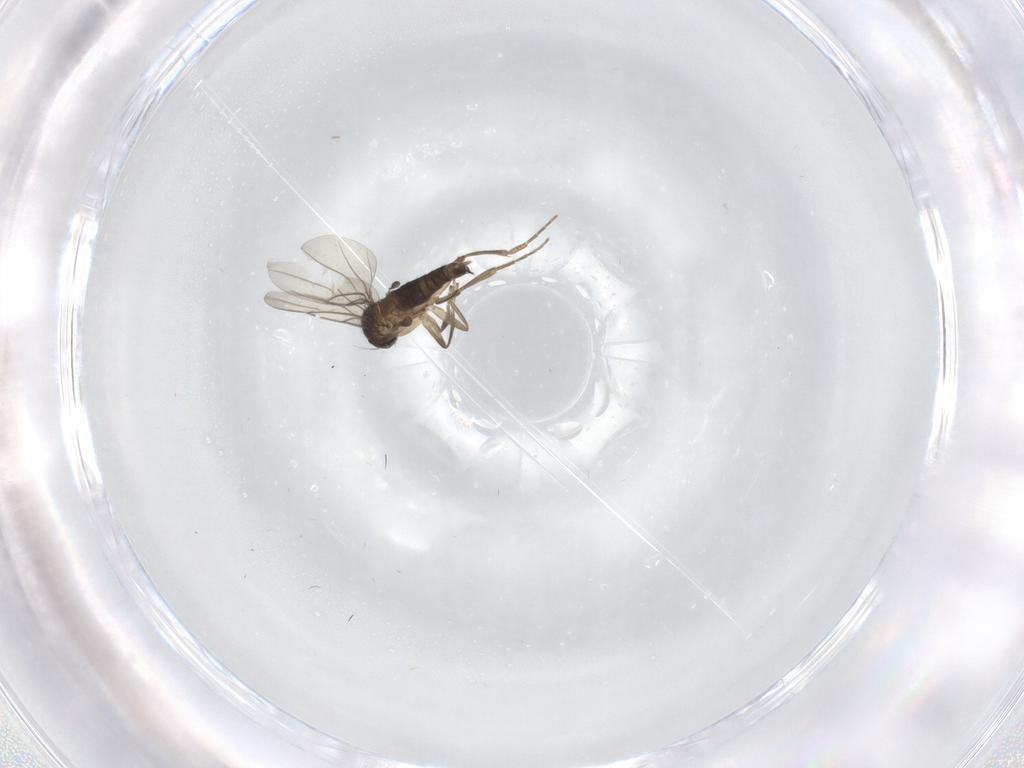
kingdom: Animalia
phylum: Arthropoda
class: Insecta
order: Diptera
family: Phoridae
